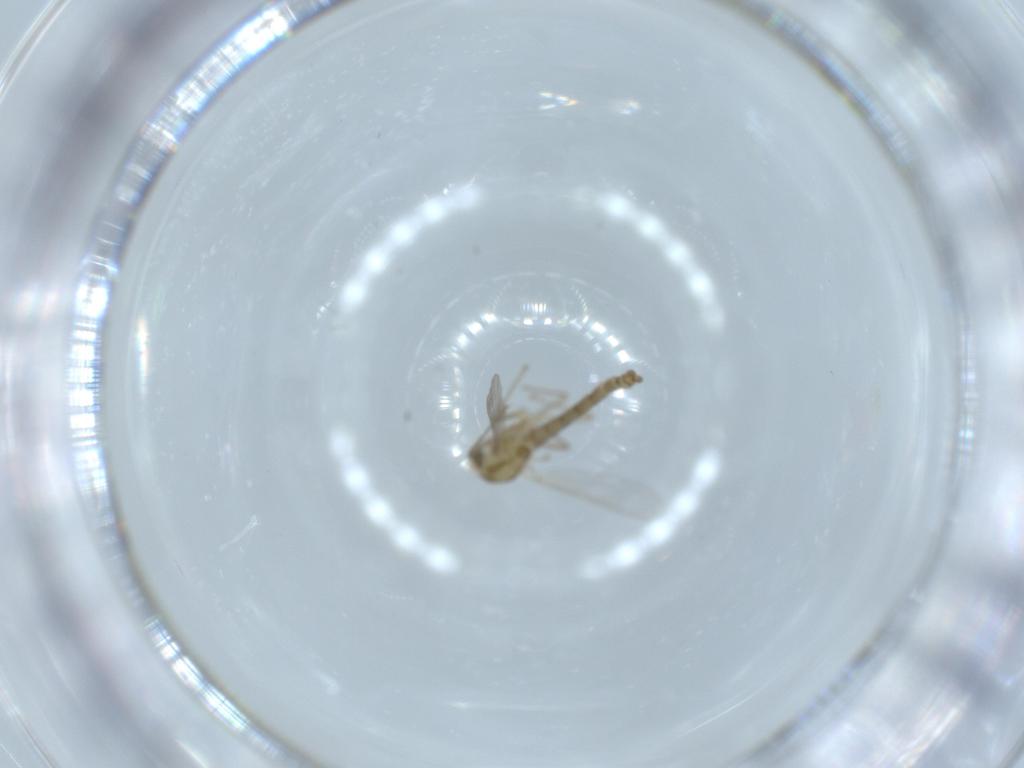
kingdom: Animalia
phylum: Arthropoda
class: Insecta
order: Diptera
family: Chironomidae
